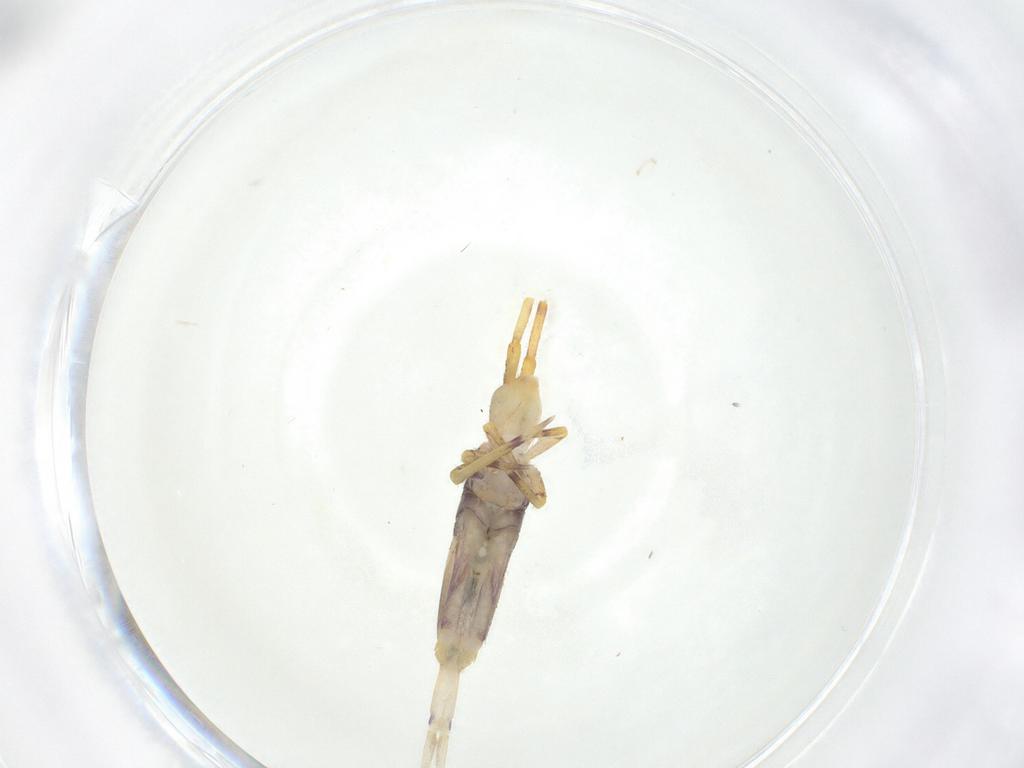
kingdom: Animalia
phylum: Arthropoda
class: Collembola
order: Entomobryomorpha
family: Entomobryidae
